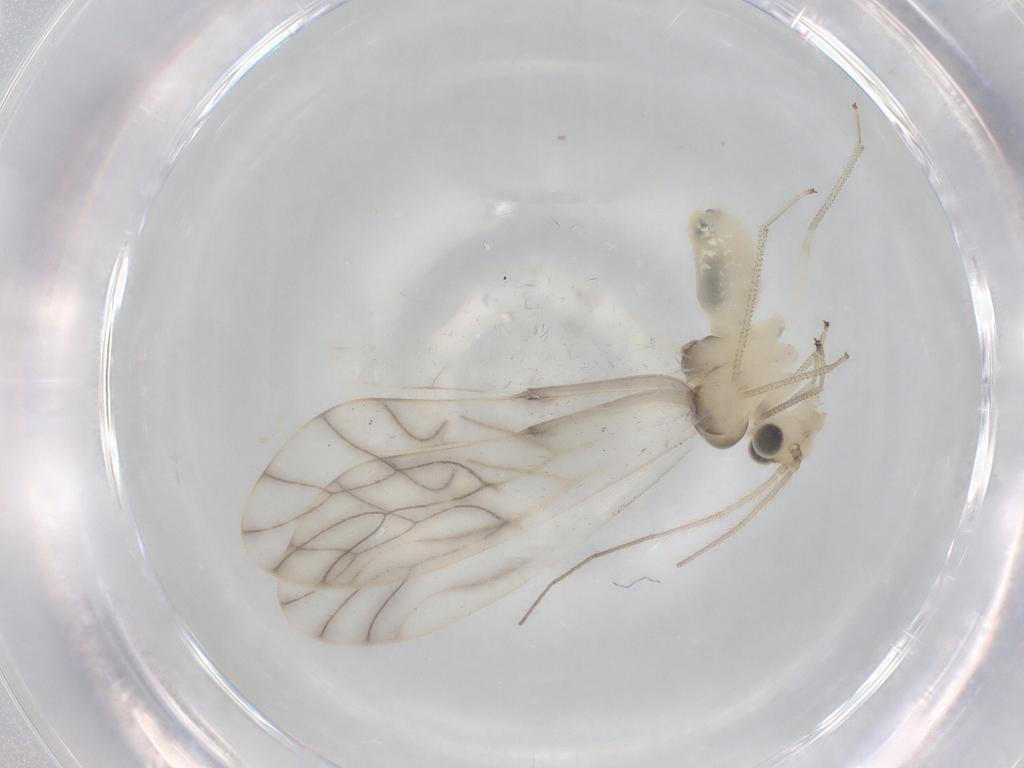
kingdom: Animalia
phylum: Arthropoda
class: Insecta
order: Psocodea
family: Caeciliusidae
